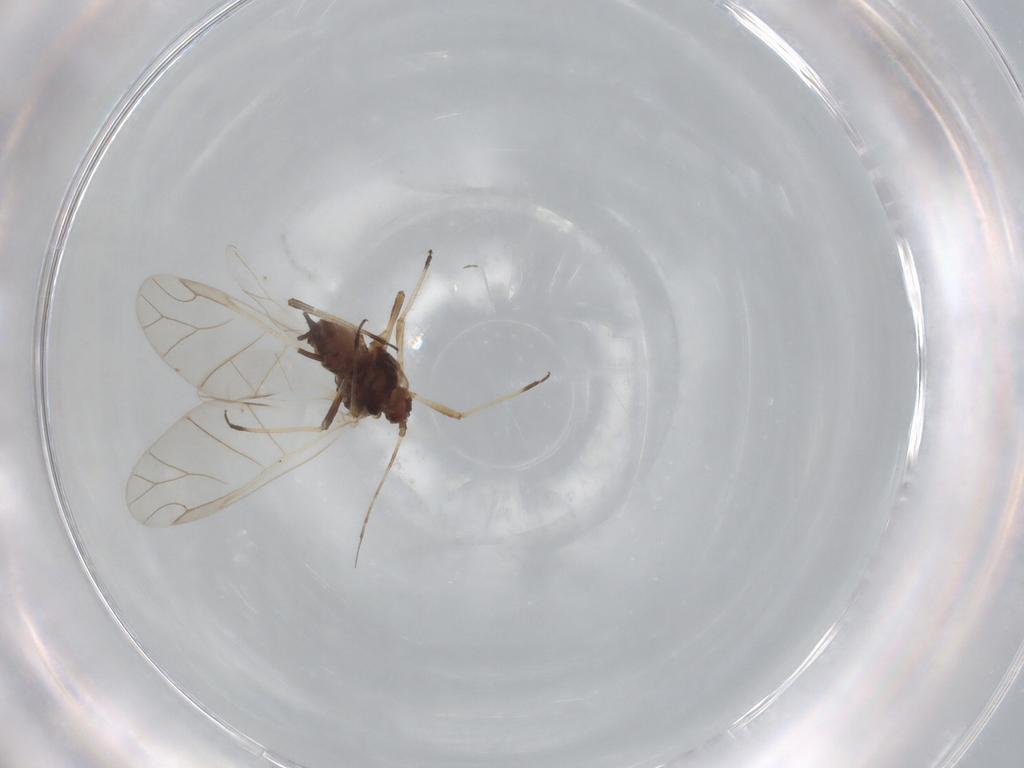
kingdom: Animalia
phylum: Arthropoda
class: Insecta
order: Hemiptera
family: Aphididae
